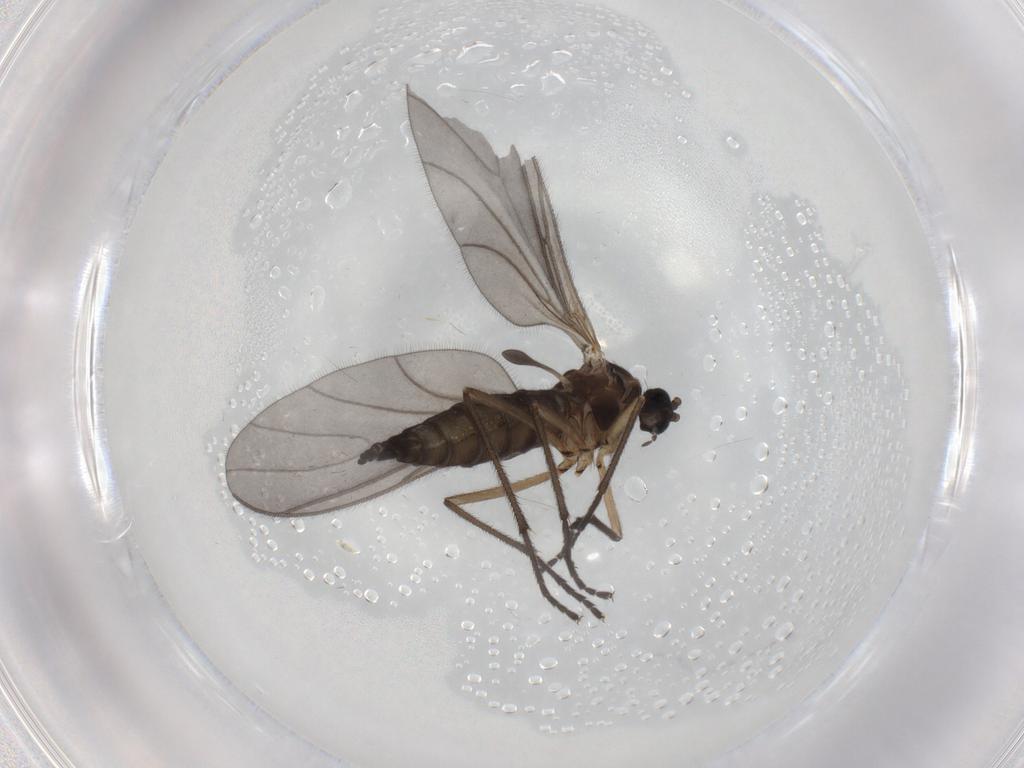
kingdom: Animalia
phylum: Arthropoda
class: Insecta
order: Diptera
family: Sciaridae
